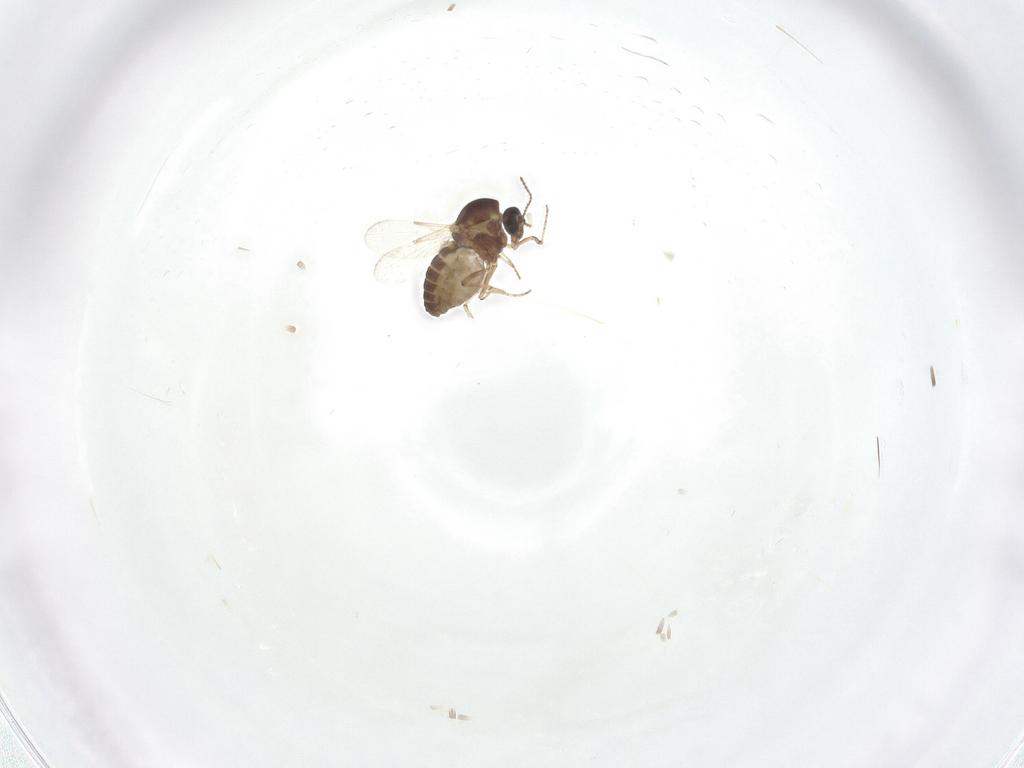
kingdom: Animalia
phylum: Arthropoda
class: Insecta
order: Diptera
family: Ceratopogonidae
